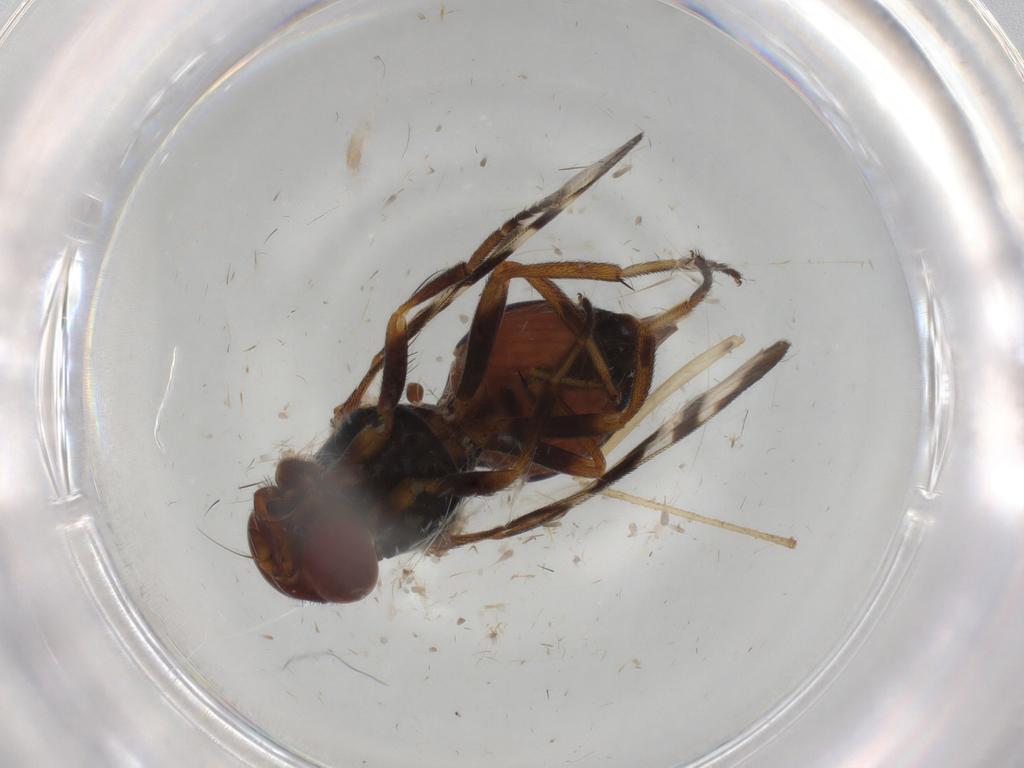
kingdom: Animalia
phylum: Arthropoda
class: Insecta
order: Diptera
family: Platystomatidae
